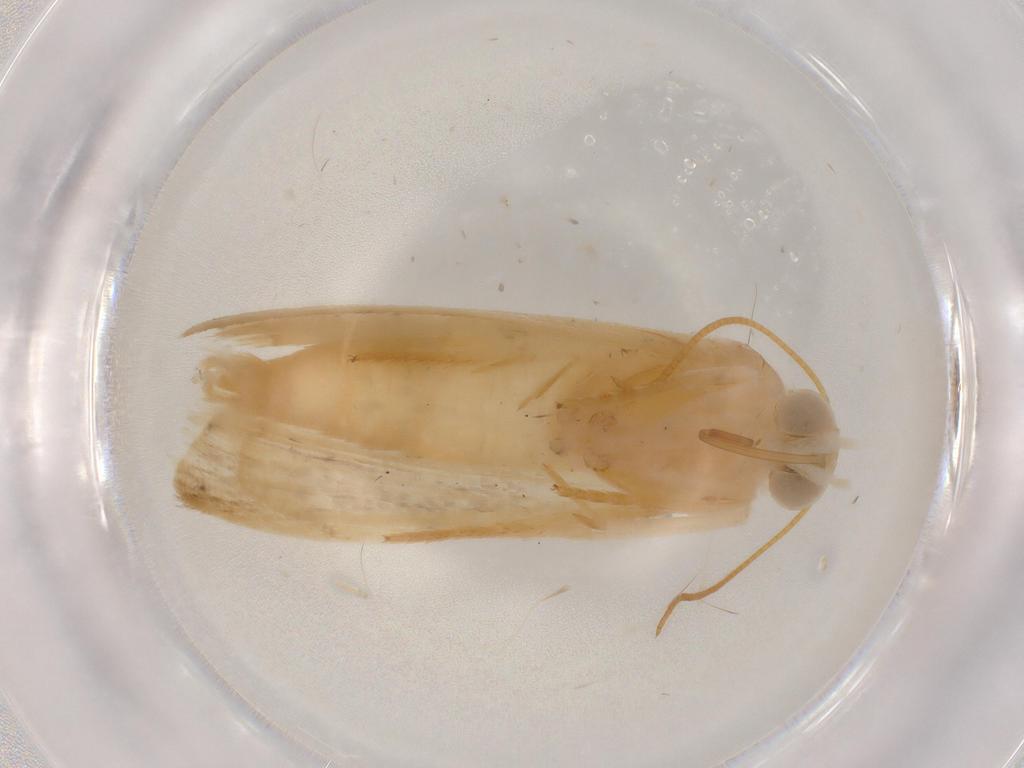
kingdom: Animalia
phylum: Arthropoda
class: Insecta
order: Lepidoptera
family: Noctuidae
